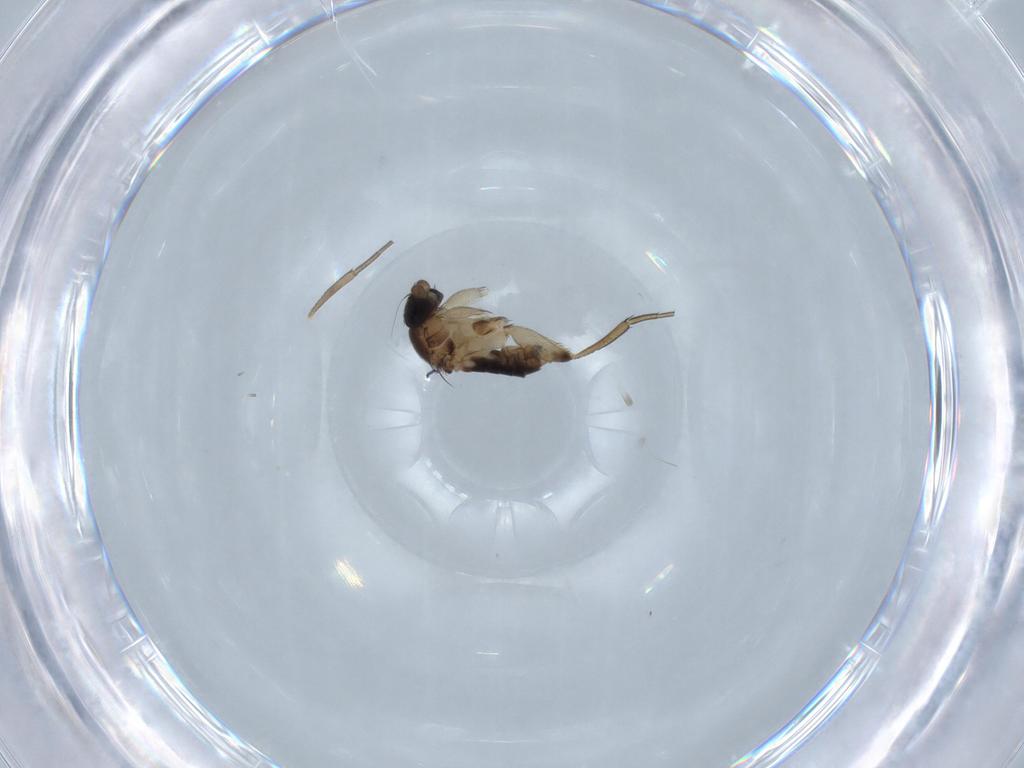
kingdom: Animalia
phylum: Arthropoda
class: Insecta
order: Diptera
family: Phoridae
